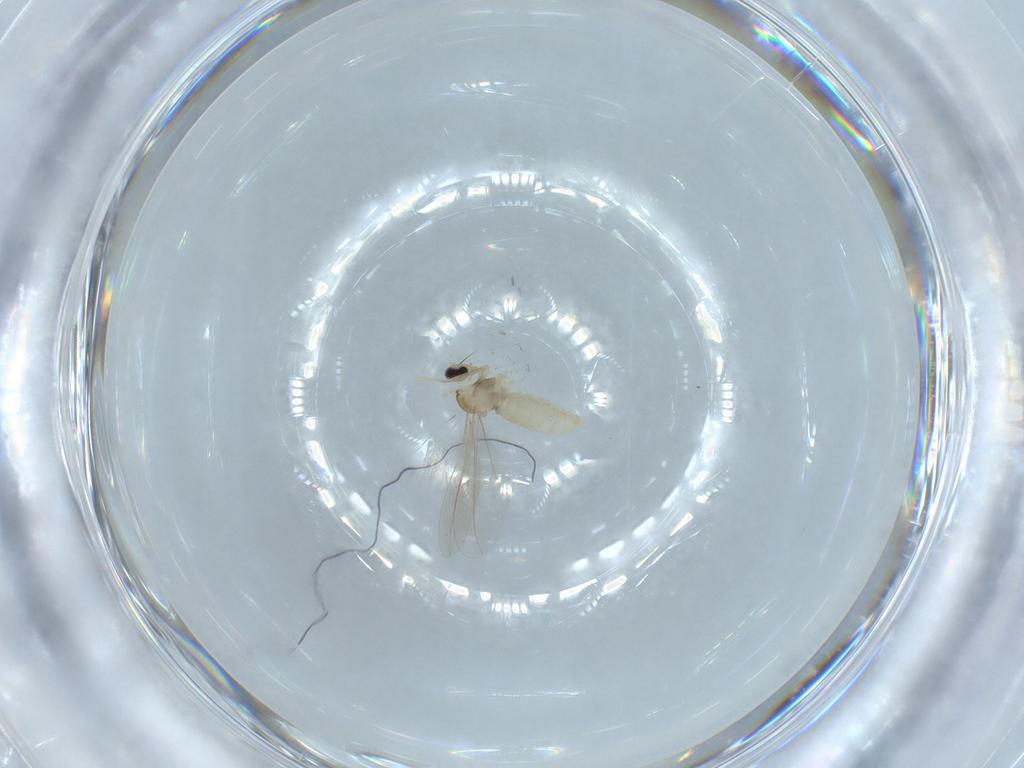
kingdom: Animalia
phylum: Arthropoda
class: Insecta
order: Diptera
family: Cecidomyiidae
